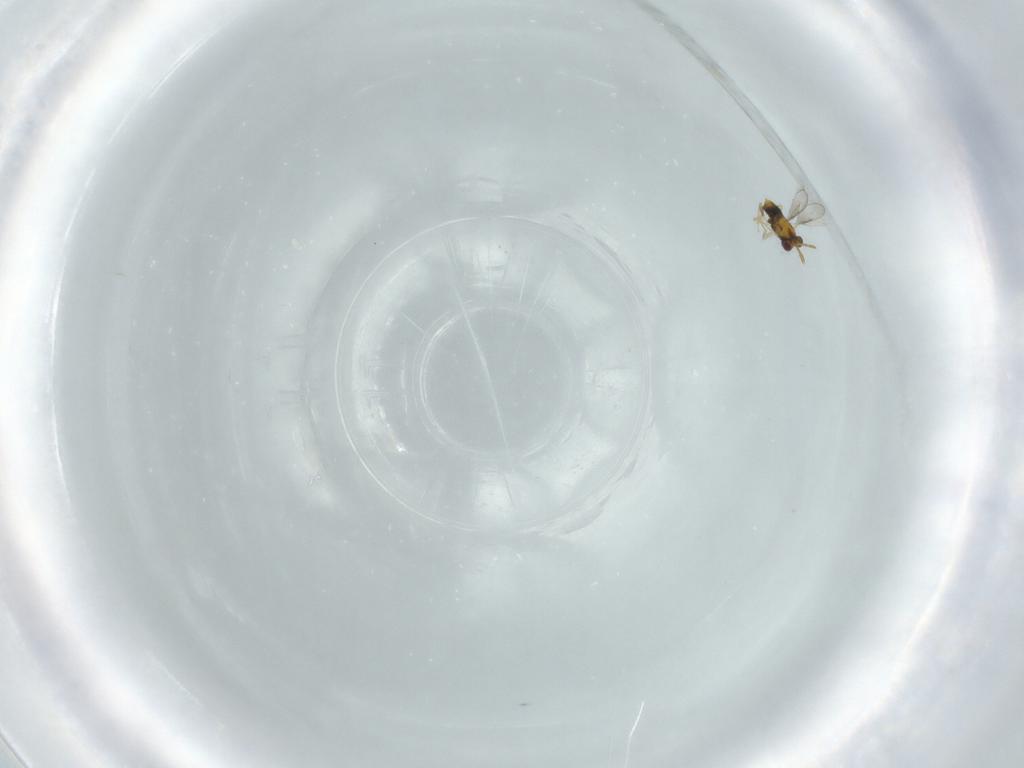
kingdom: Animalia
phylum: Arthropoda
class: Insecta
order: Hymenoptera
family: Aphelinidae
